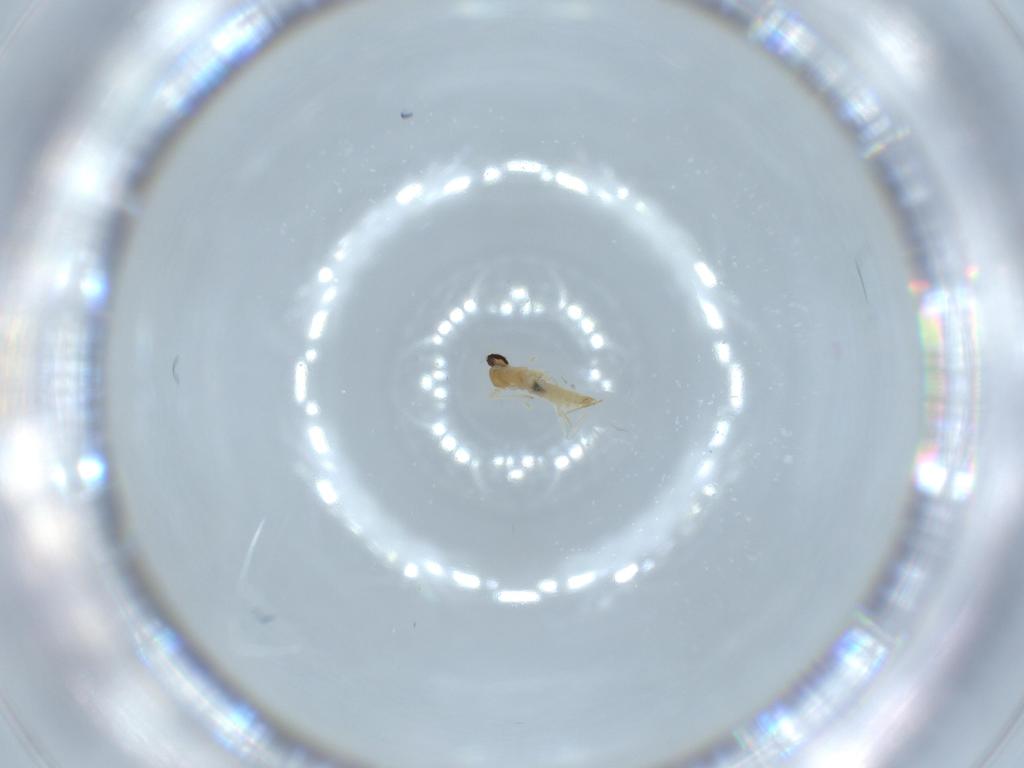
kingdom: Animalia
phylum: Arthropoda
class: Insecta
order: Diptera
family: Cecidomyiidae
